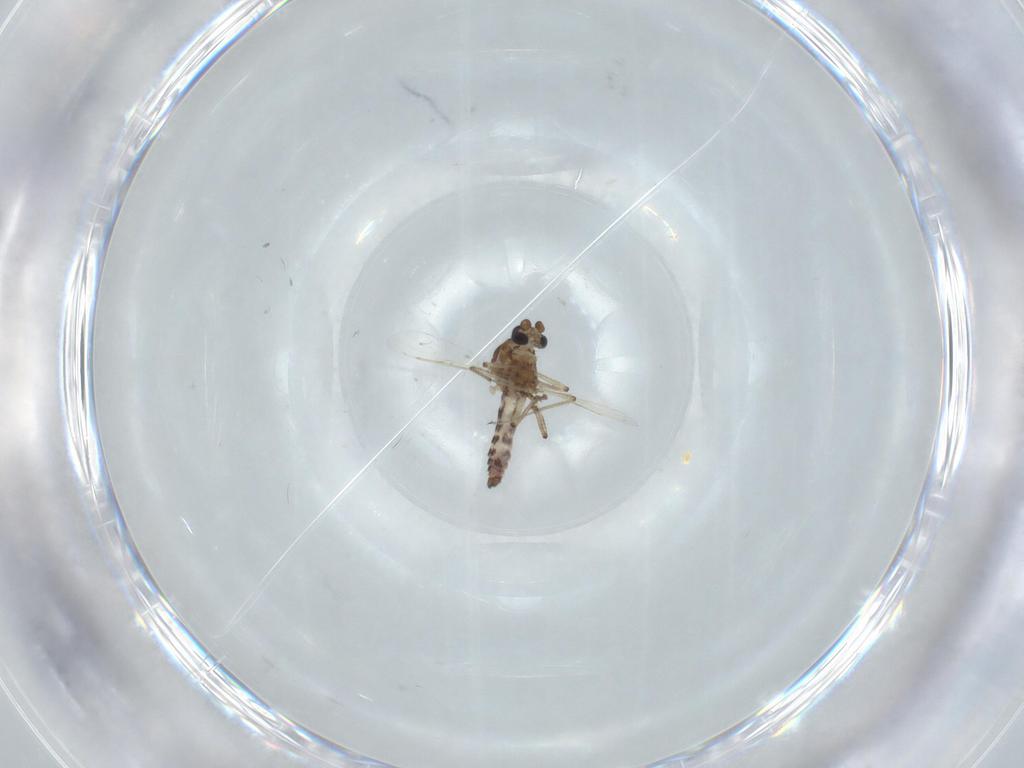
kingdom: Animalia
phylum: Arthropoda
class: Insecta
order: Diptera
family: Ceratopogonidae
